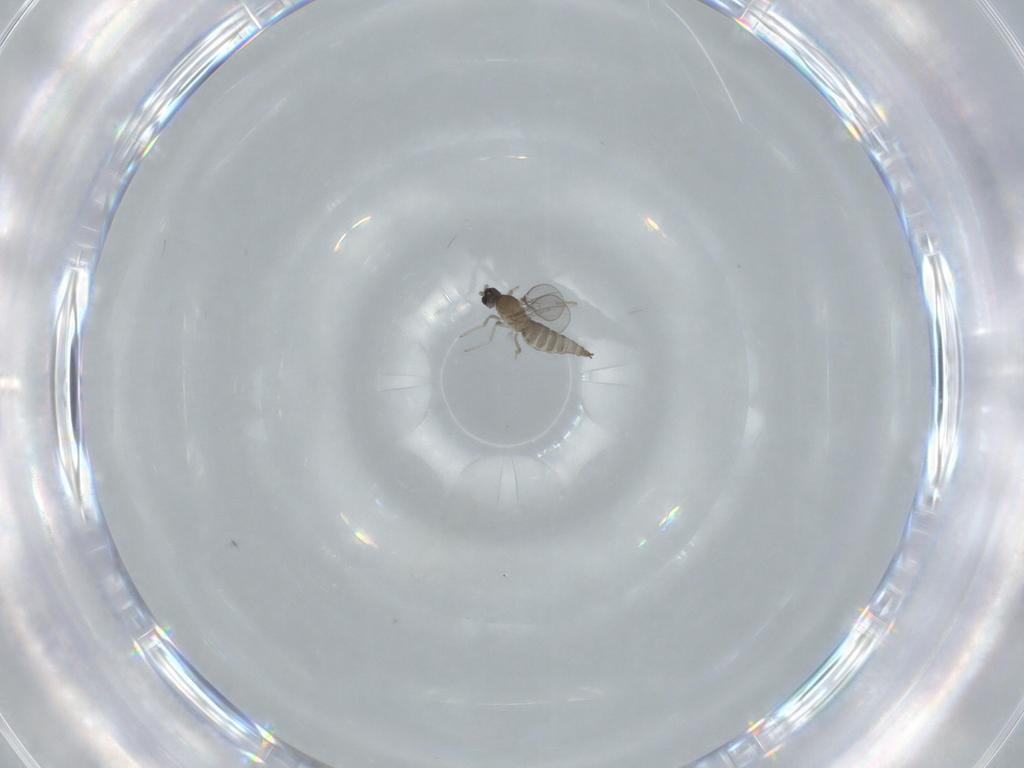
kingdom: Animalia
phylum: Arthropoda
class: Insecta
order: Diptera
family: Cecidomyiidae
